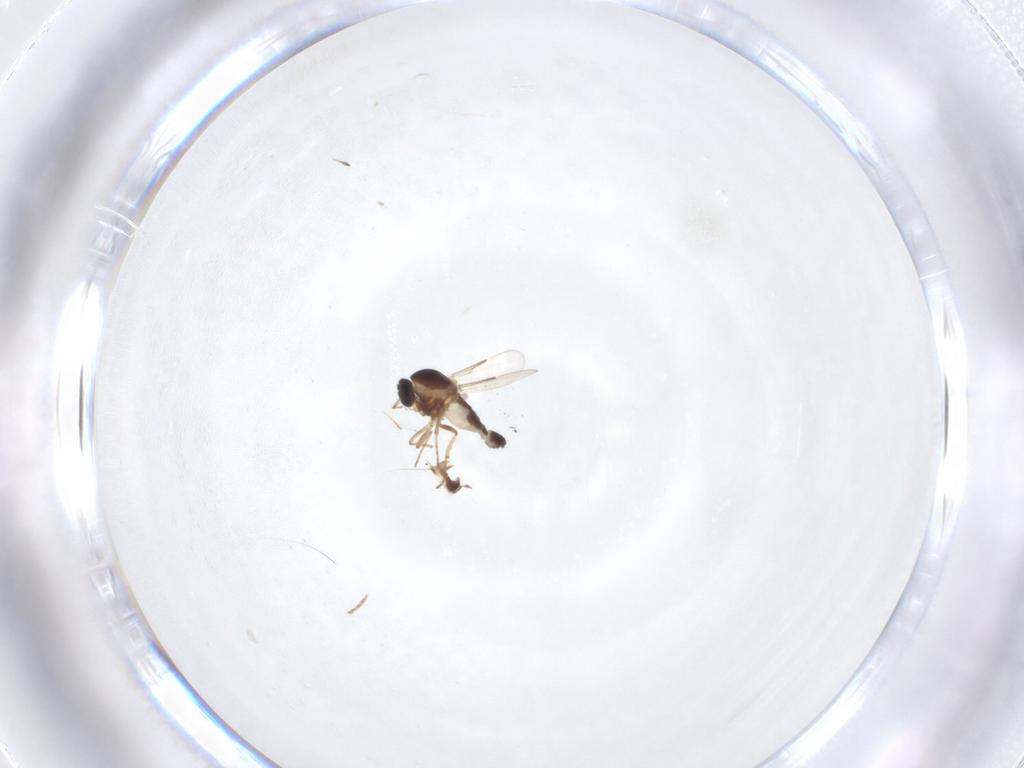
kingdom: Animalia
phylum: Arthropoda
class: Insecta
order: Diptera
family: Ceratopogonidae
